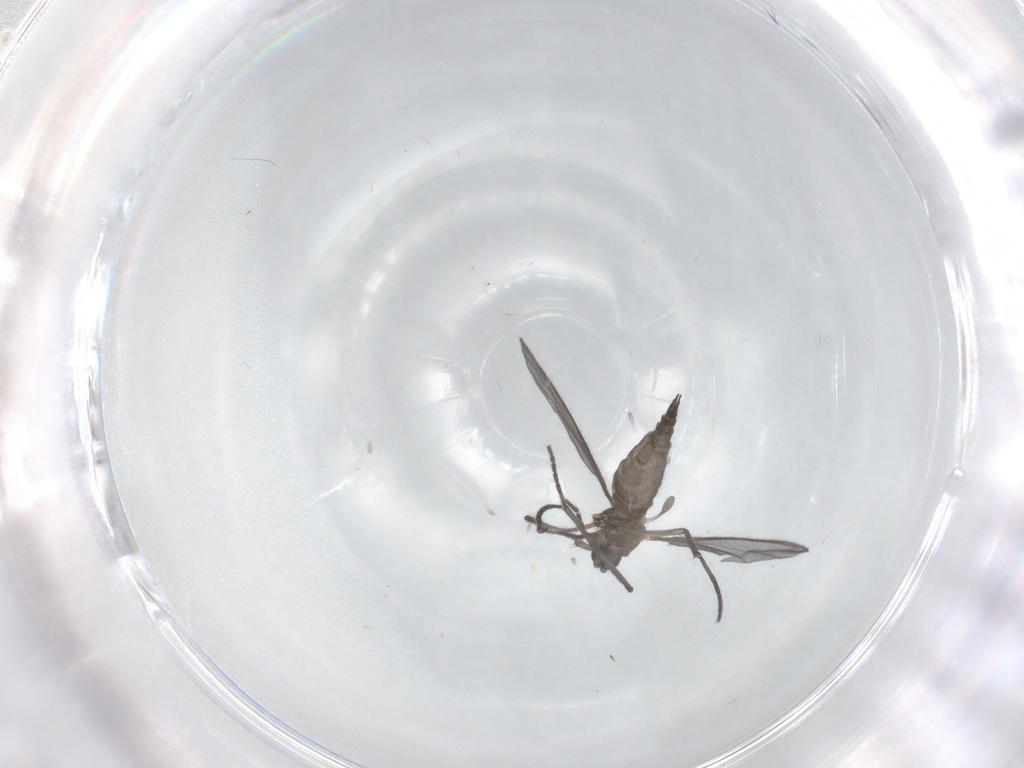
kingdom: Animalia
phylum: Arthropoda
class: Insecta
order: Diptera
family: Sciaridae
